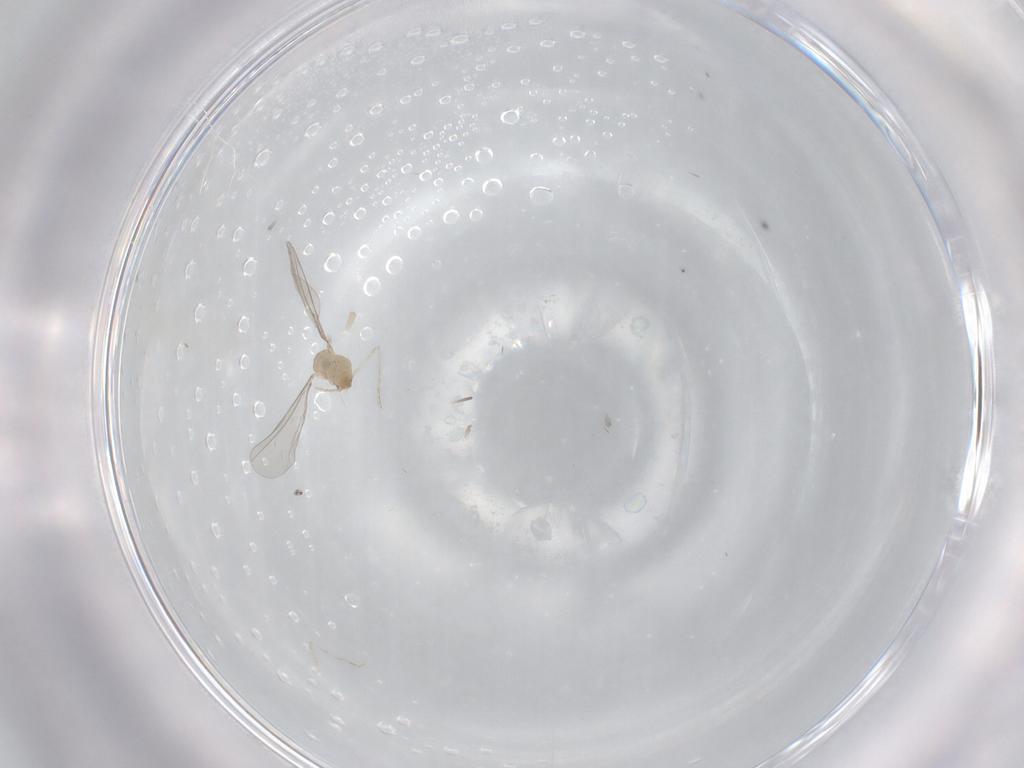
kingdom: Animalia
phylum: Arthropoda
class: Insecta
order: Diptera
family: Cecidomyiidae
